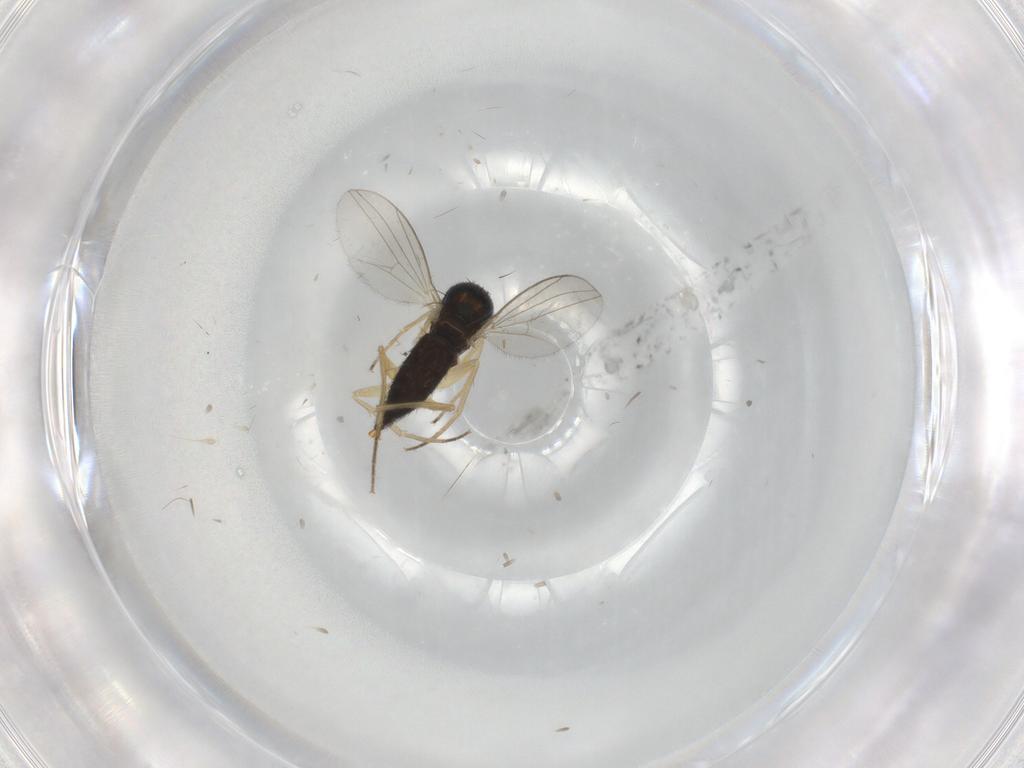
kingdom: Animalia
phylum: Arthropoda
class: Insecta
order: Diptera
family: Dolichopodidae
